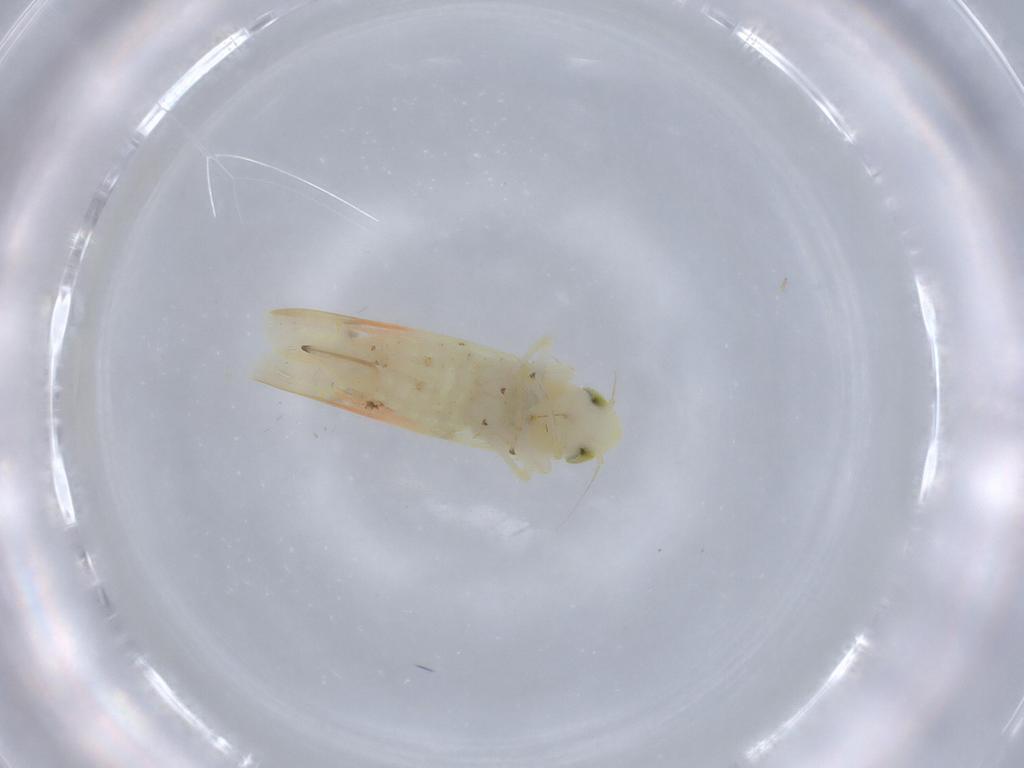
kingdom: Animalia
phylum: Arthropoda
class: Insecta
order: Hemiptera
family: Cicadellidae
